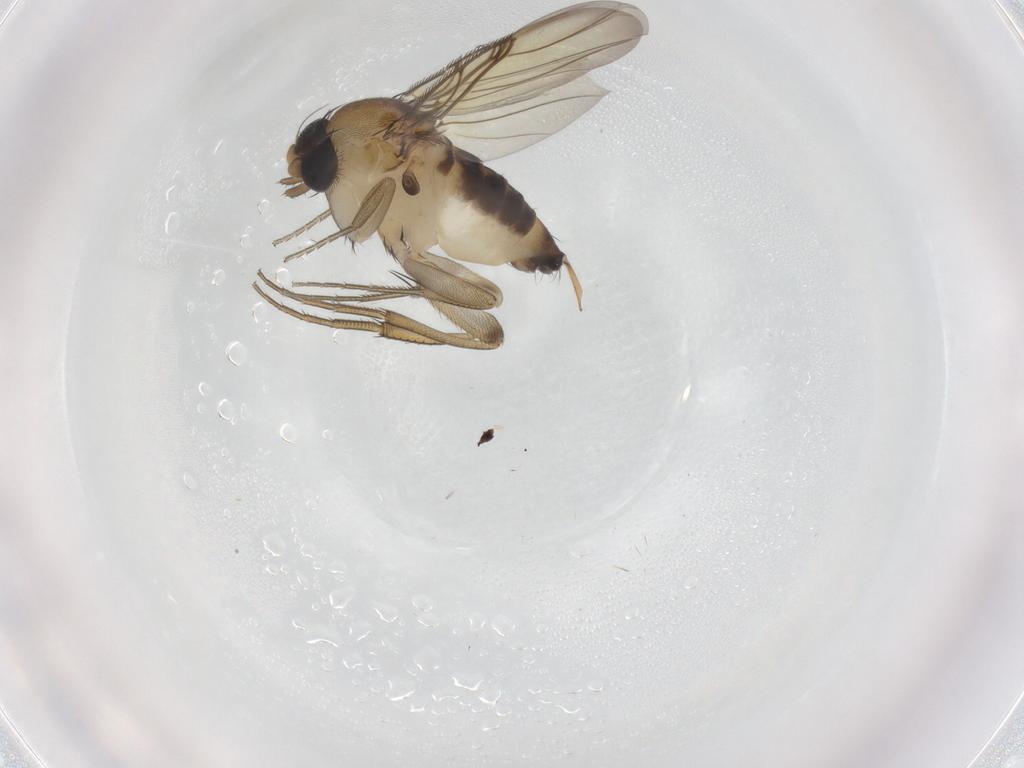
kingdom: Animalia
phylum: Arthropoda
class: Insecta
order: Diptera
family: Phoridae
